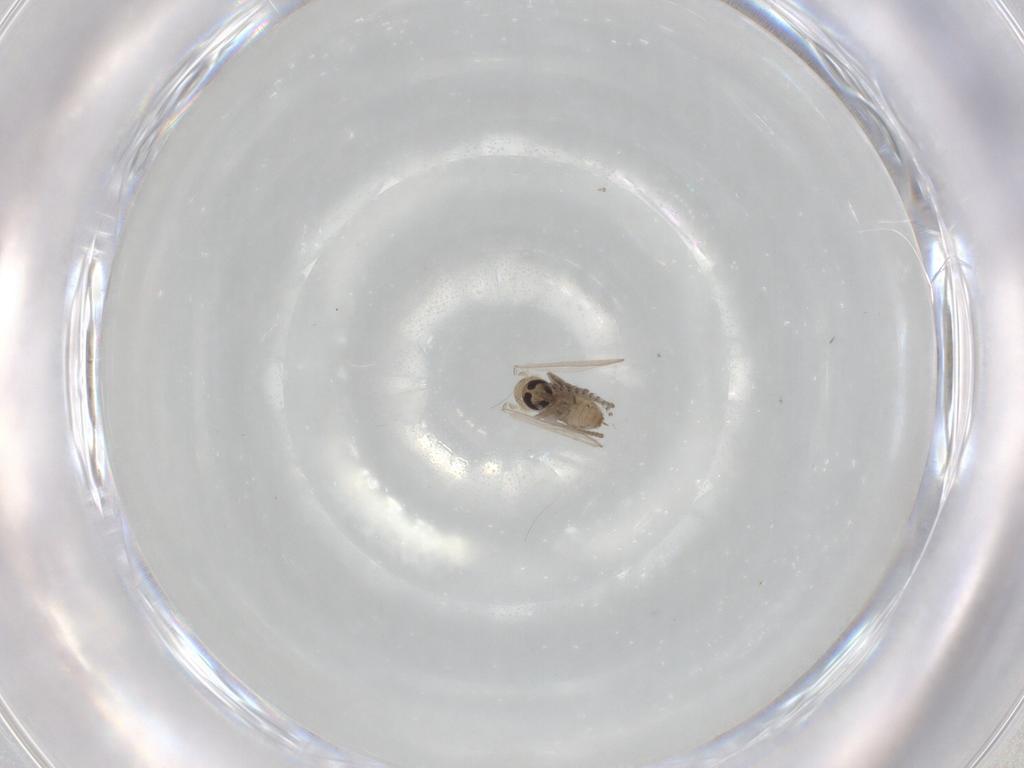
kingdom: Animalia
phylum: Arthropoda
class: Insecta
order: Diptera
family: Psychodidae
